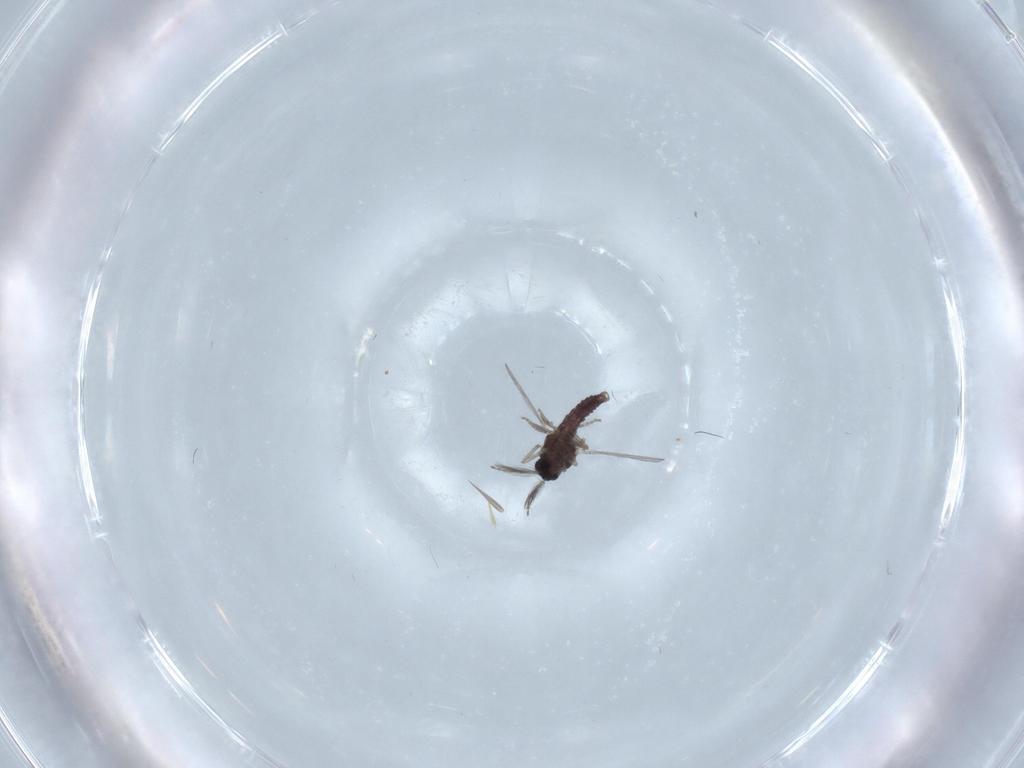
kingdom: Animalia
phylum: Arthropoda
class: Insecta
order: Diptera
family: Ceratopogonidae
